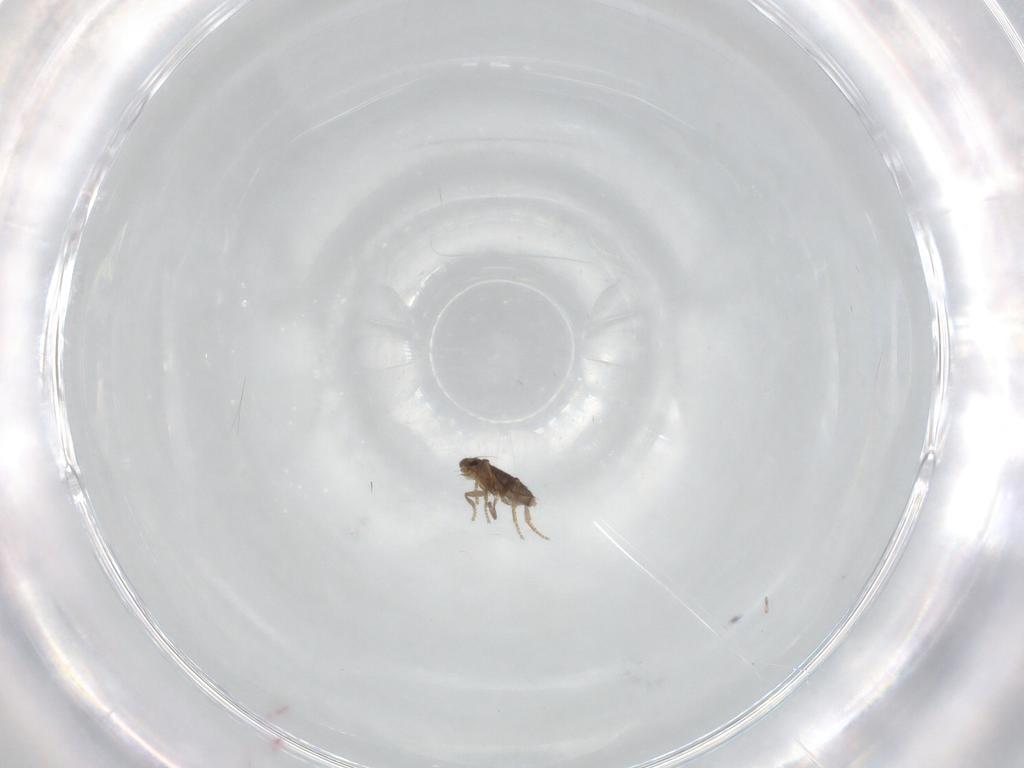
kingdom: Animalia
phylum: Arthropoda
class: Insecta
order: Diptera
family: Phoridae
